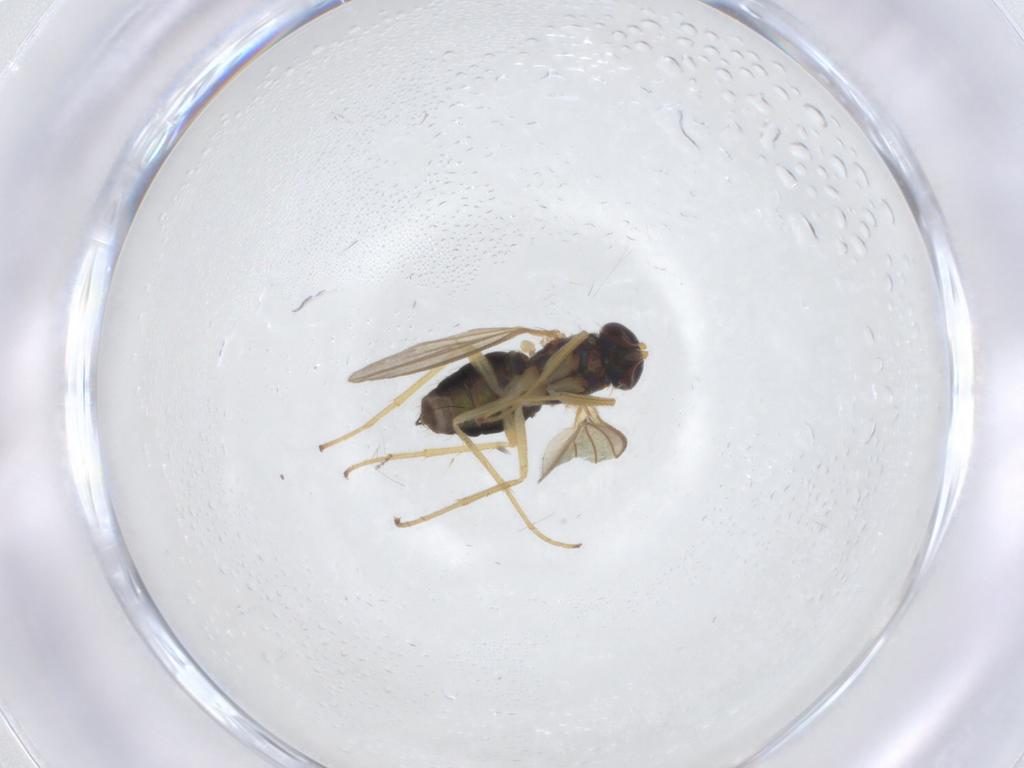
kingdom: Animalia
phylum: Arthropoda
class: Insecta
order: Diptera
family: Dolichopodidae
